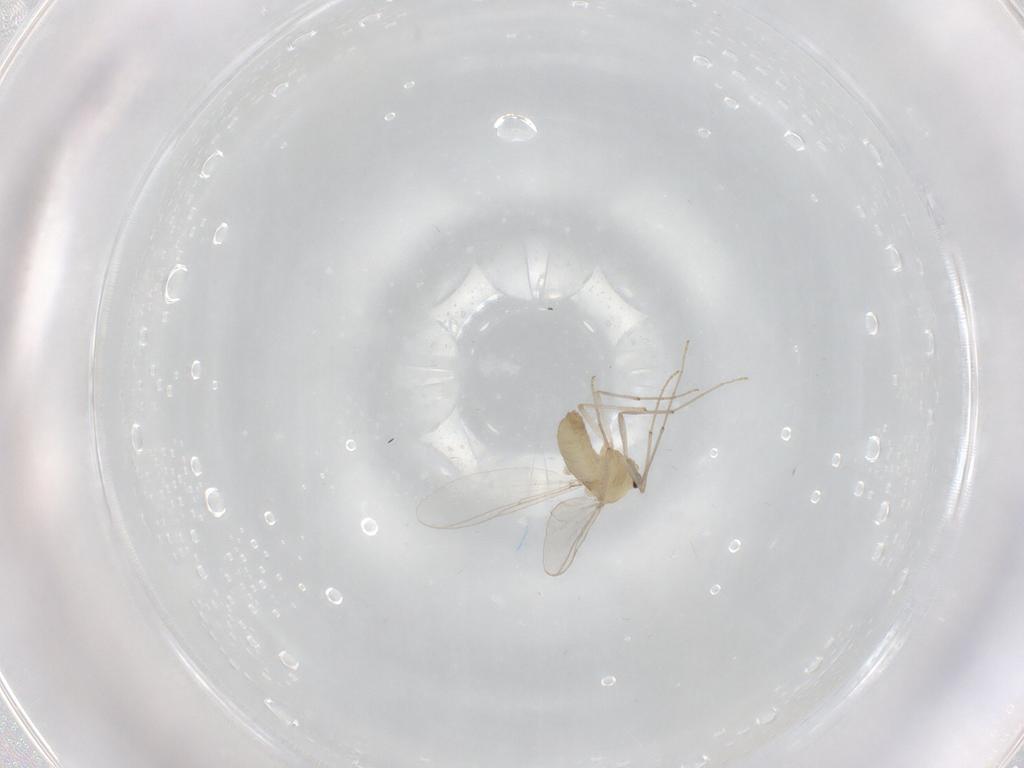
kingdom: Animalia
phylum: Arthropoda
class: Insecta
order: Diptera
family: Chironomidae
